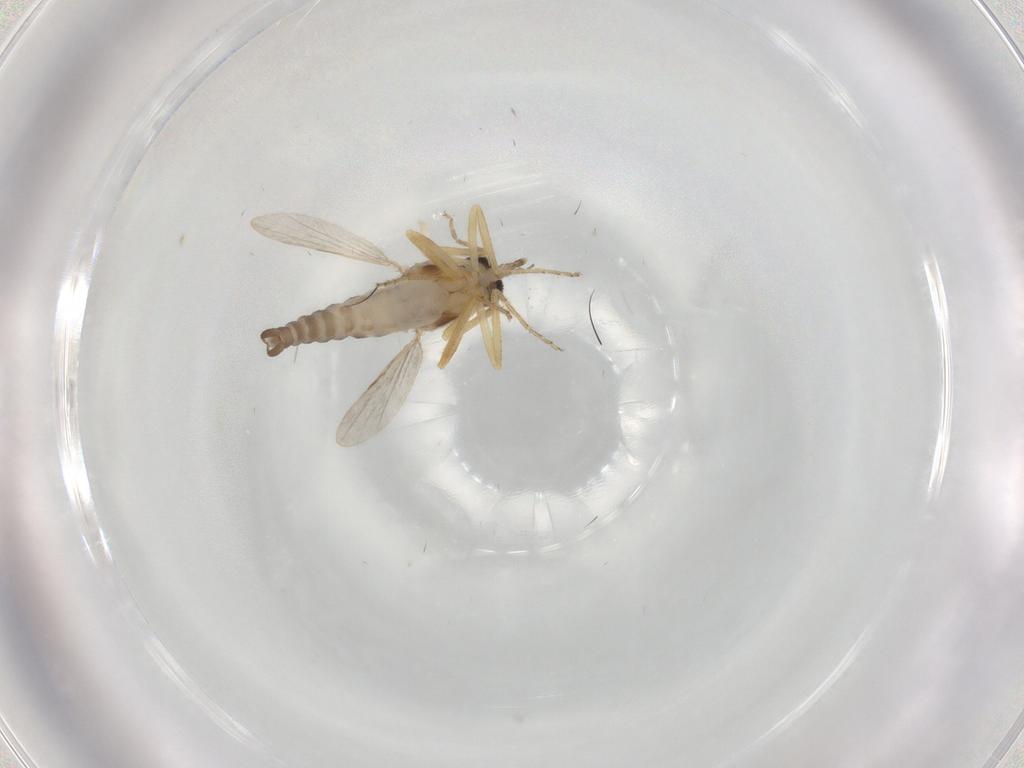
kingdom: Animalia
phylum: Arthropoda
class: Insecta
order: Diptera
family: Ceratopogonidae
